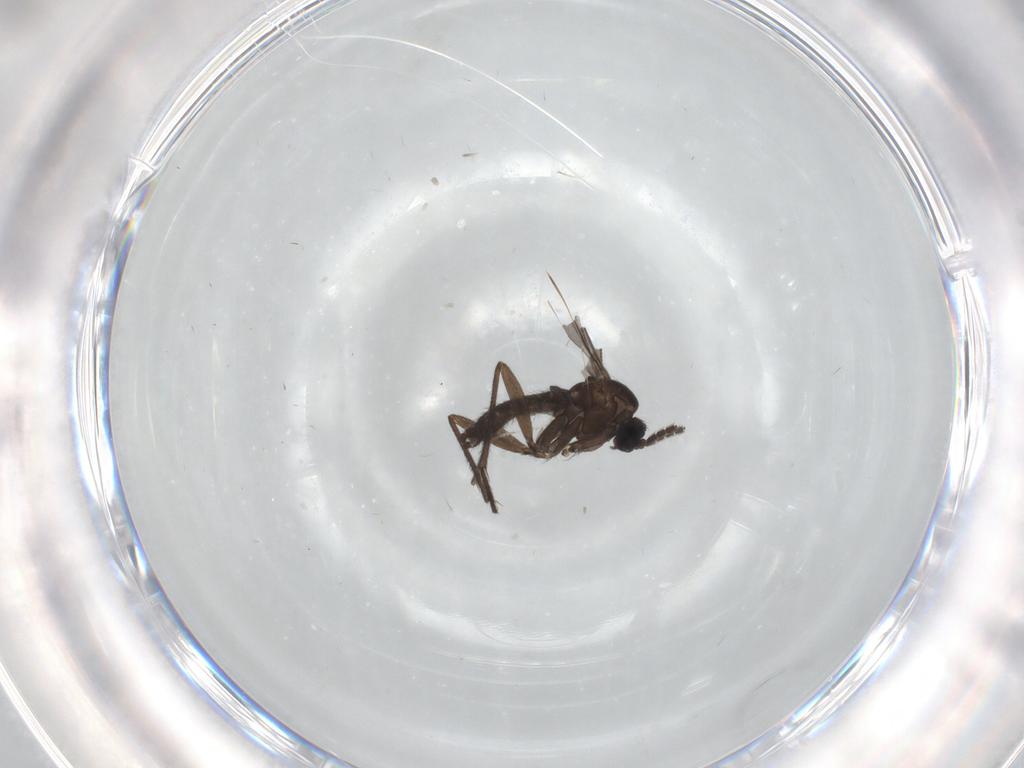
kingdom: Animalia
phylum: Arthropoda
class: Insecta
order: Diptera
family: Sciaridae
